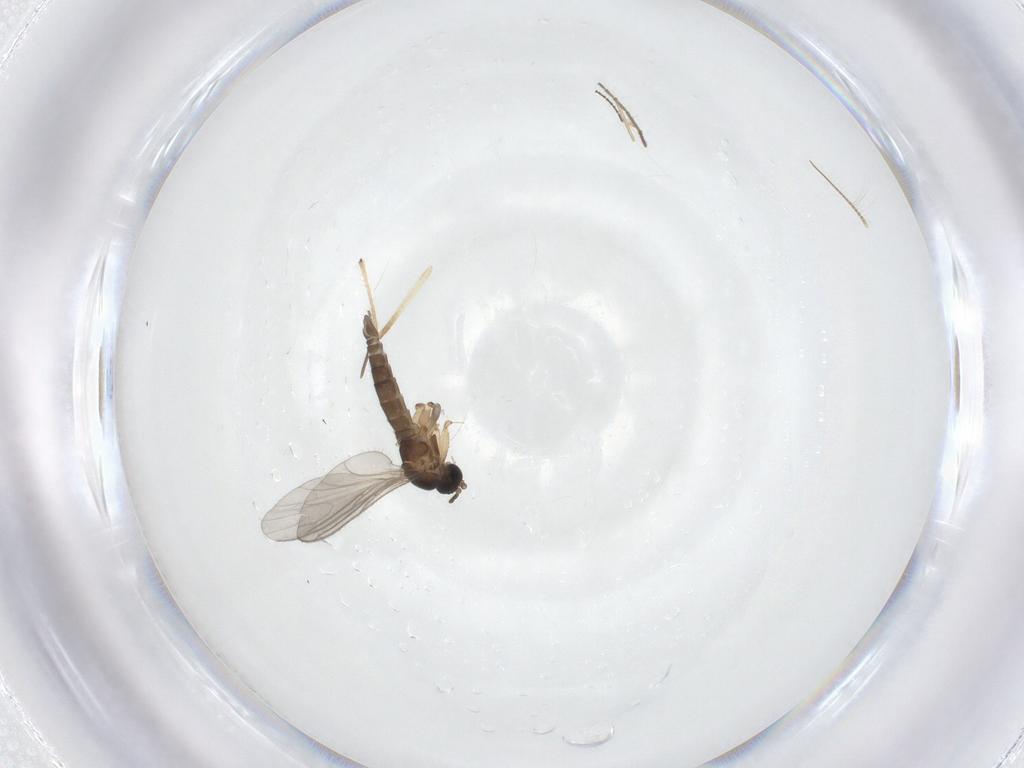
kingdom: Animalia
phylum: Arthropoda
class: Insecta
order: Diptera
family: Sciaridae
